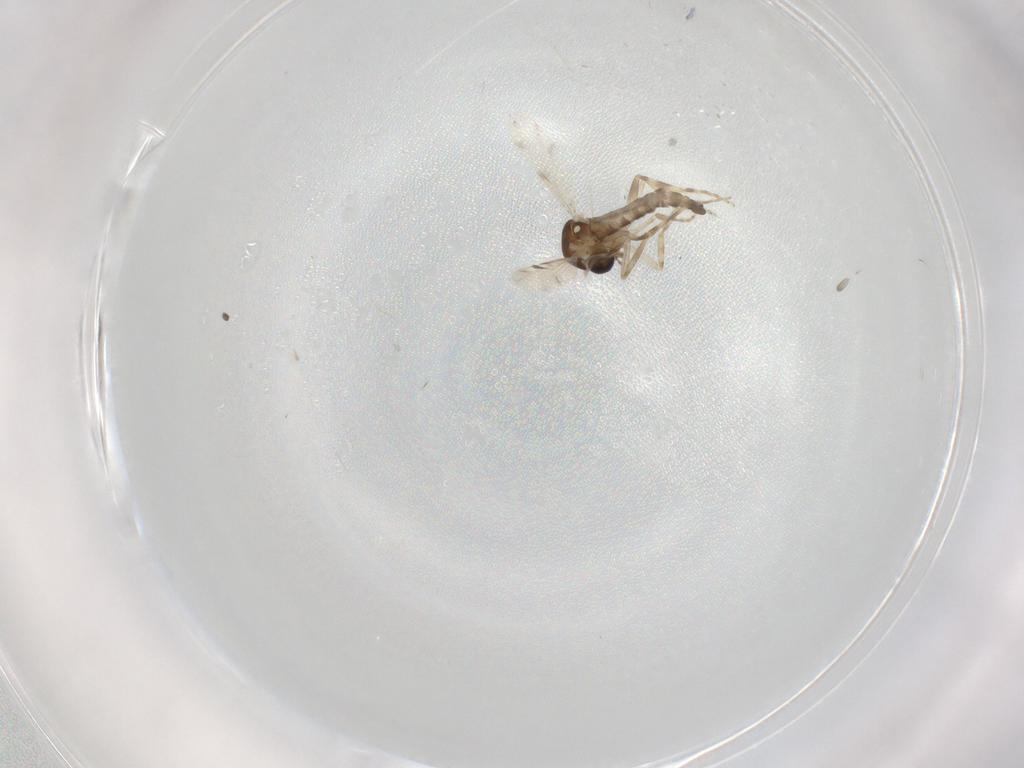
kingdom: Animalia
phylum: Arthropoda
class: Insecta
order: Diptera
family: Ceratopogonidae
